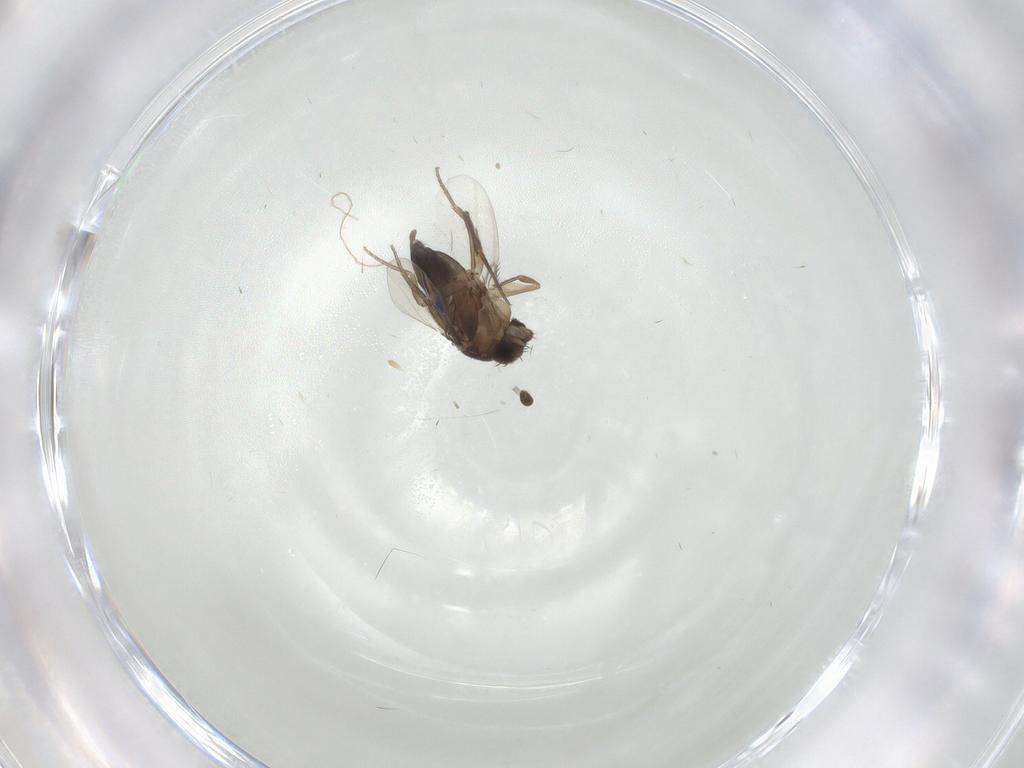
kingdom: Animalia
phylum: Arthropoda
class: Insecta
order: Diptera
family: Phoridae
